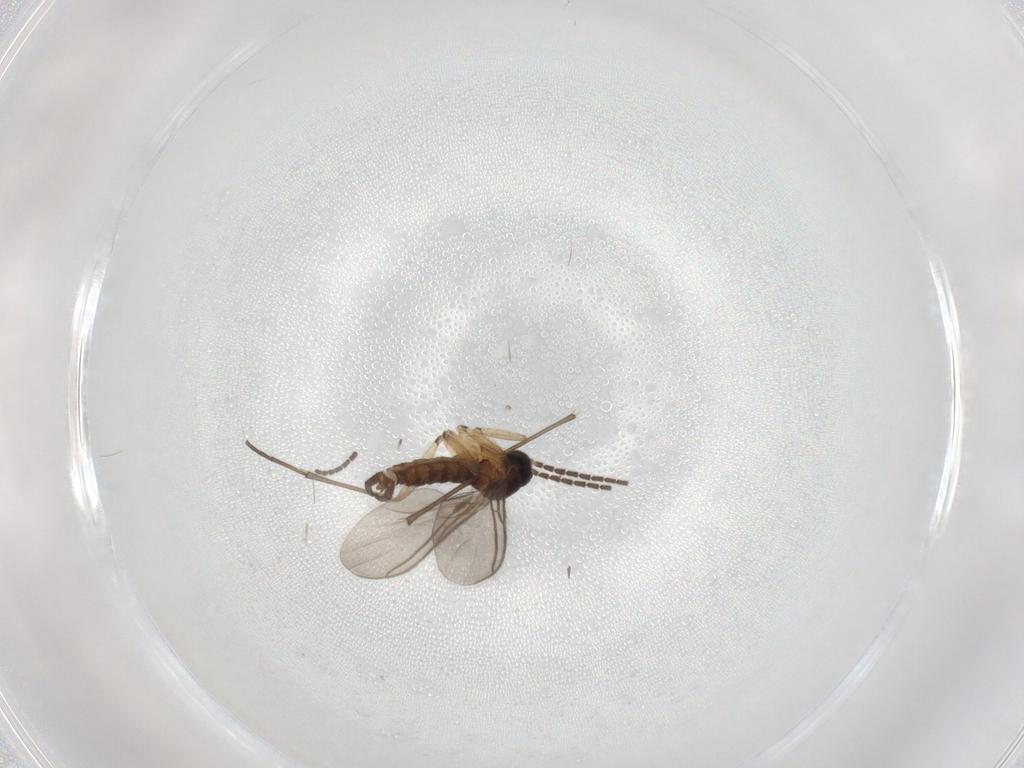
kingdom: Animalia
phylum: Arthropoda
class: Insecta
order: Diptera
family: Sciaridae
